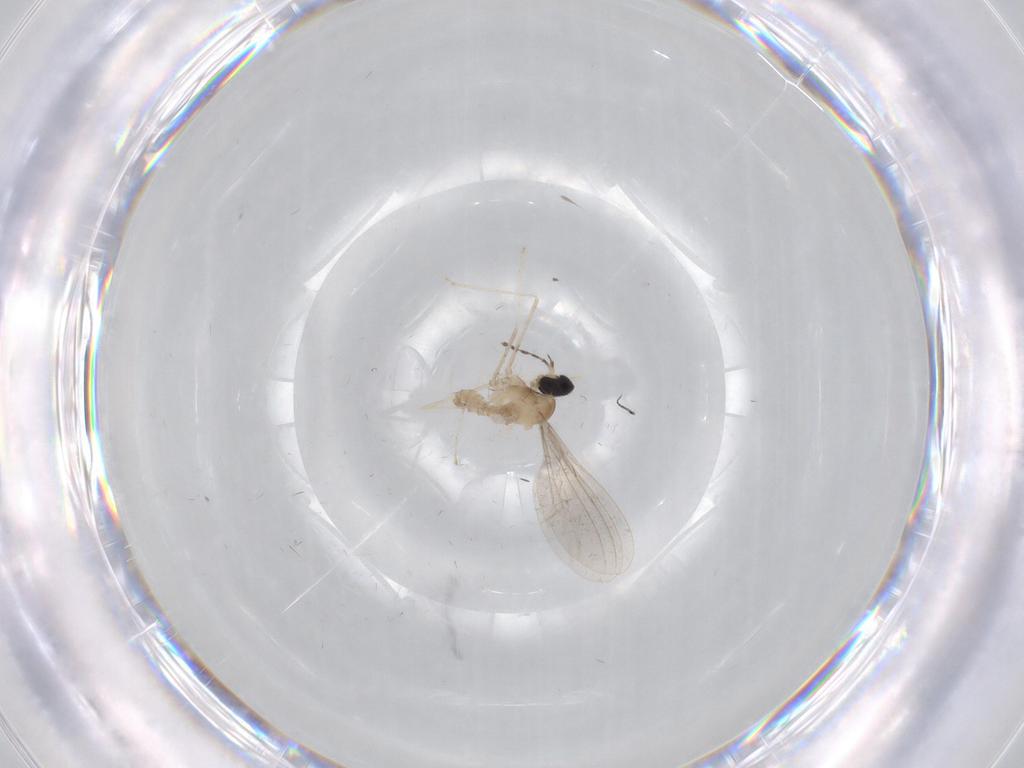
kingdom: Animalia
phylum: Arthropoda
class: Insecta
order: Diptera
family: Cecidomyiidae
